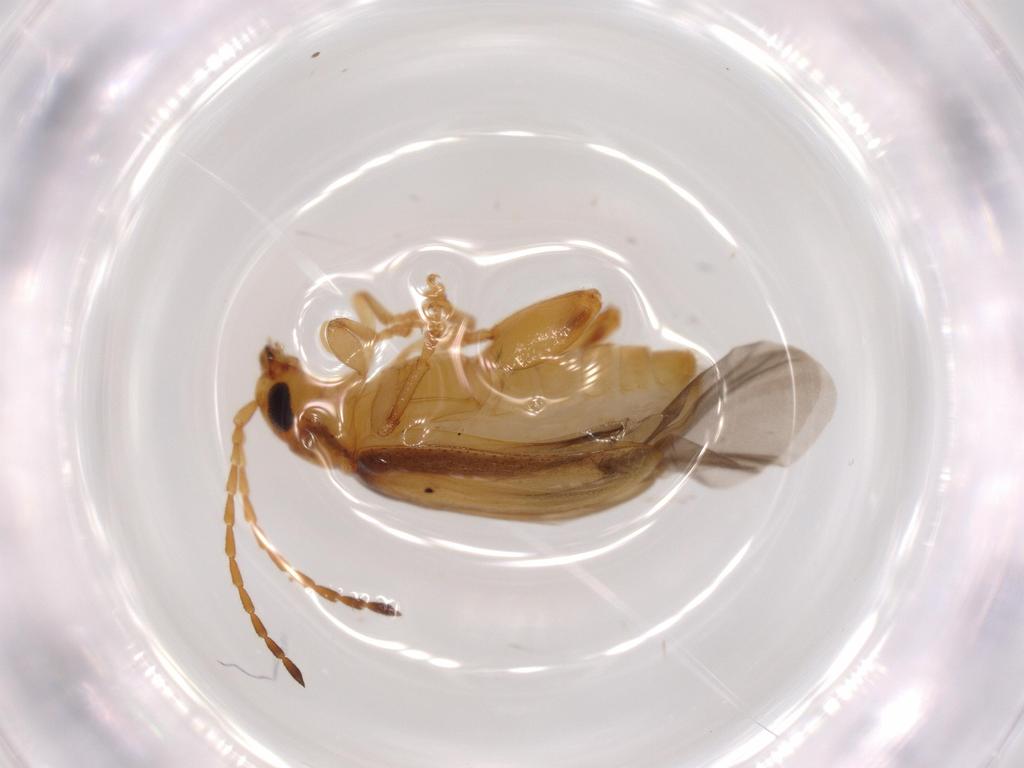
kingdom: Animalia
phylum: Arthropoda
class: Insecta
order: Coleoptera
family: Chrysomelidae
